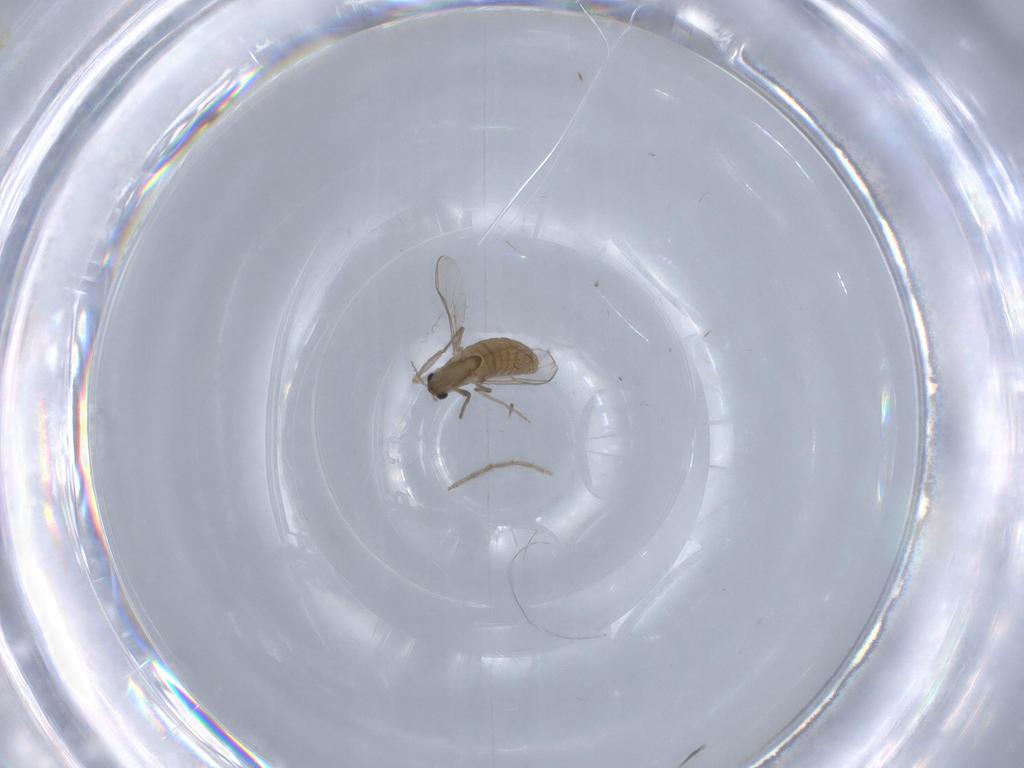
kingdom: Animalia
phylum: Arthropoda
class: Insecta
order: Diptera
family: Chironomidae
